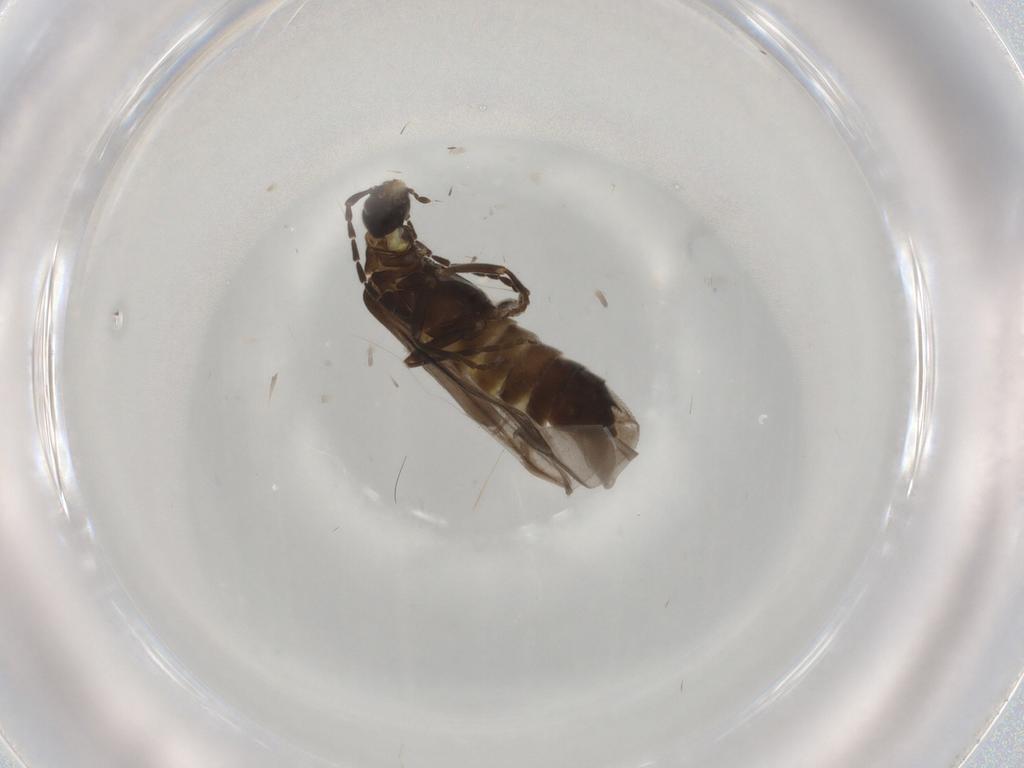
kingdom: Animalia
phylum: Arthropoda
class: Insecta
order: Coleoptera
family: Cantharidae
